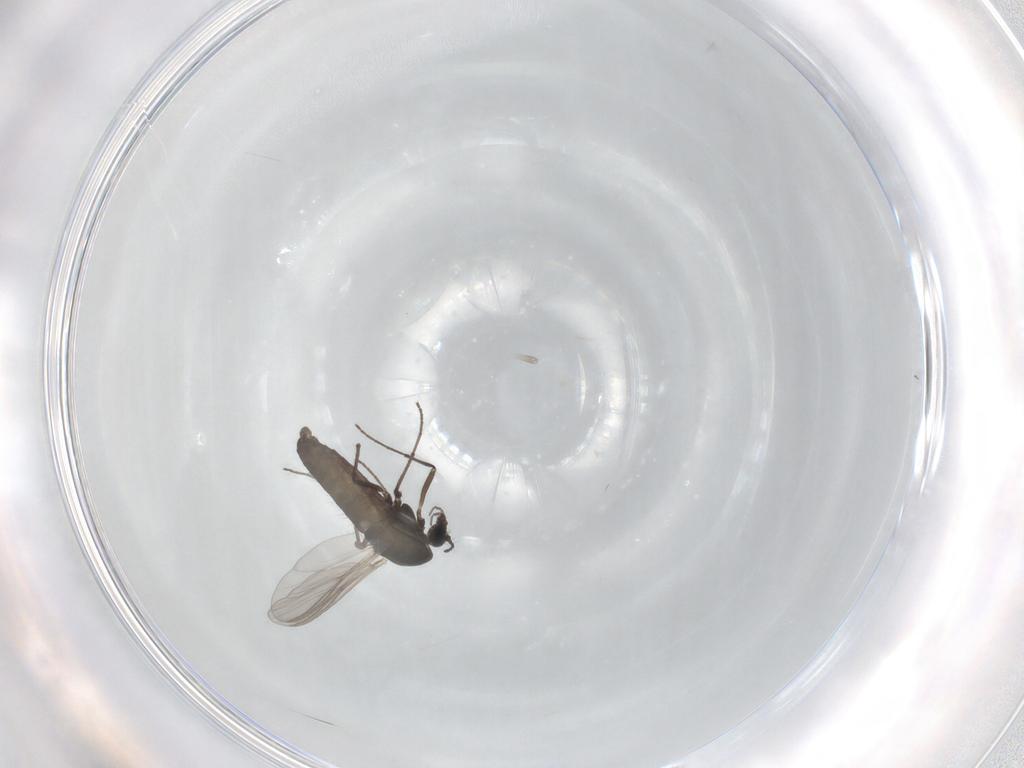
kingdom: Animalia
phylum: Arthropoda
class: Insecta
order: Diptera
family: Chironomidae
